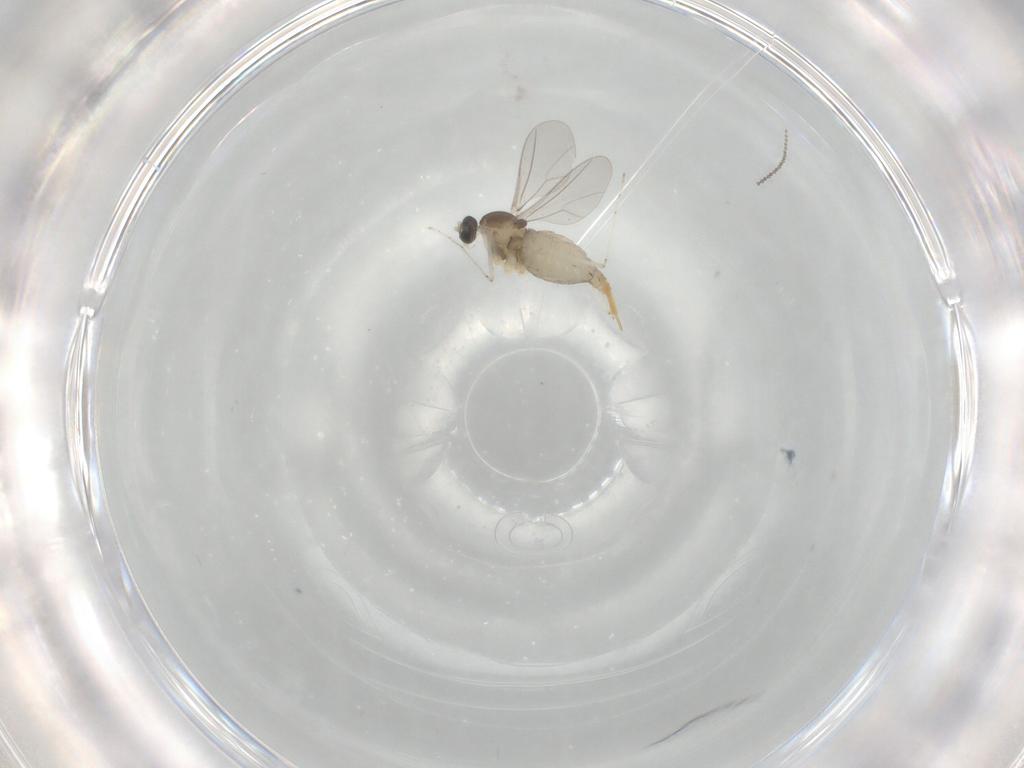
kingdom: Animalia
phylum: Arthropoda
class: Insecta
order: Diptera
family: Cecidomyiidae
